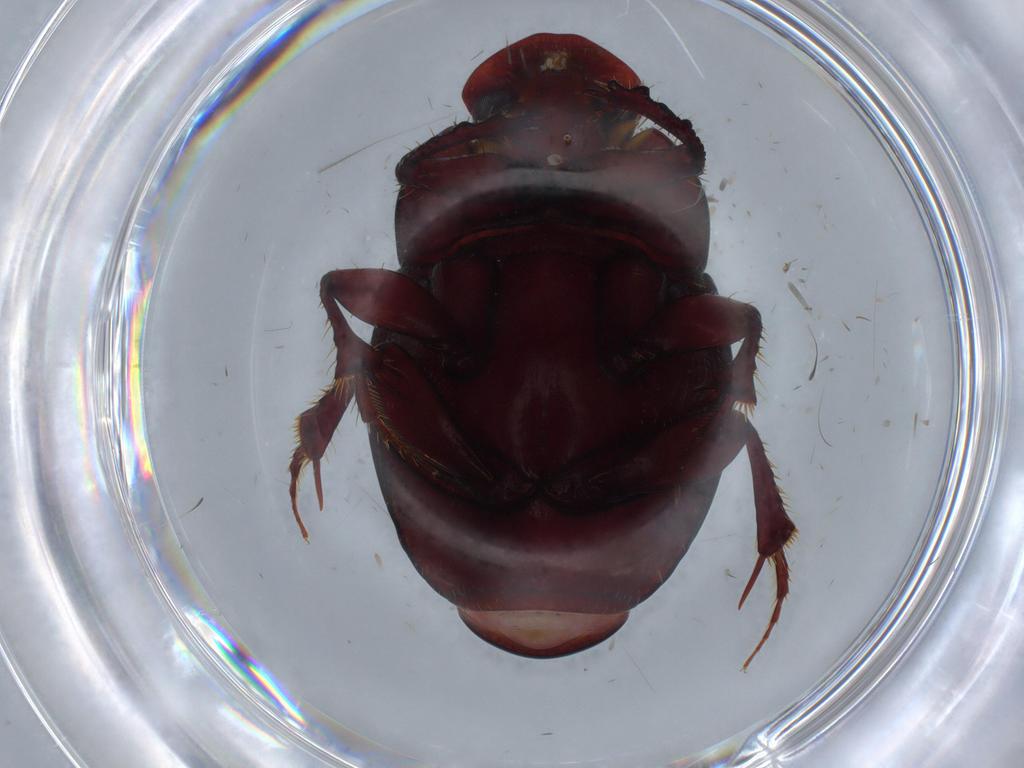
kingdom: Animalia
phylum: Arthropoda
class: Insecta
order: Coleoptera
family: Scarabaeidae
